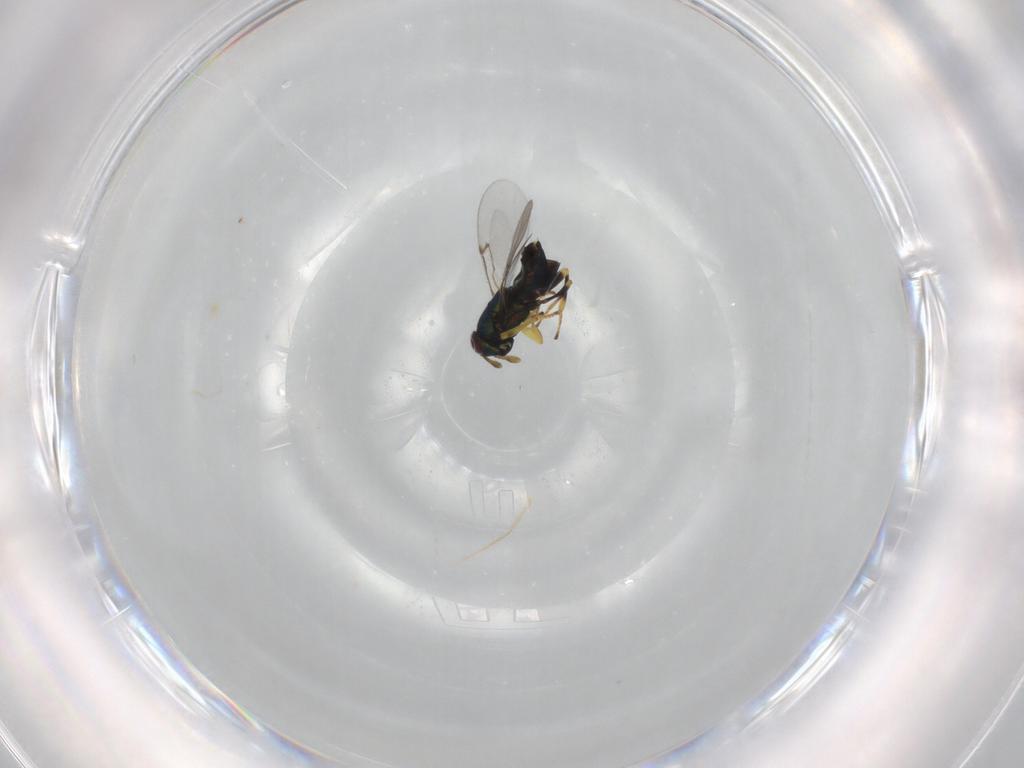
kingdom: Animalia
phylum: Arthropoda
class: Insecta
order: Hymenoptera
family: Encyrtidae
